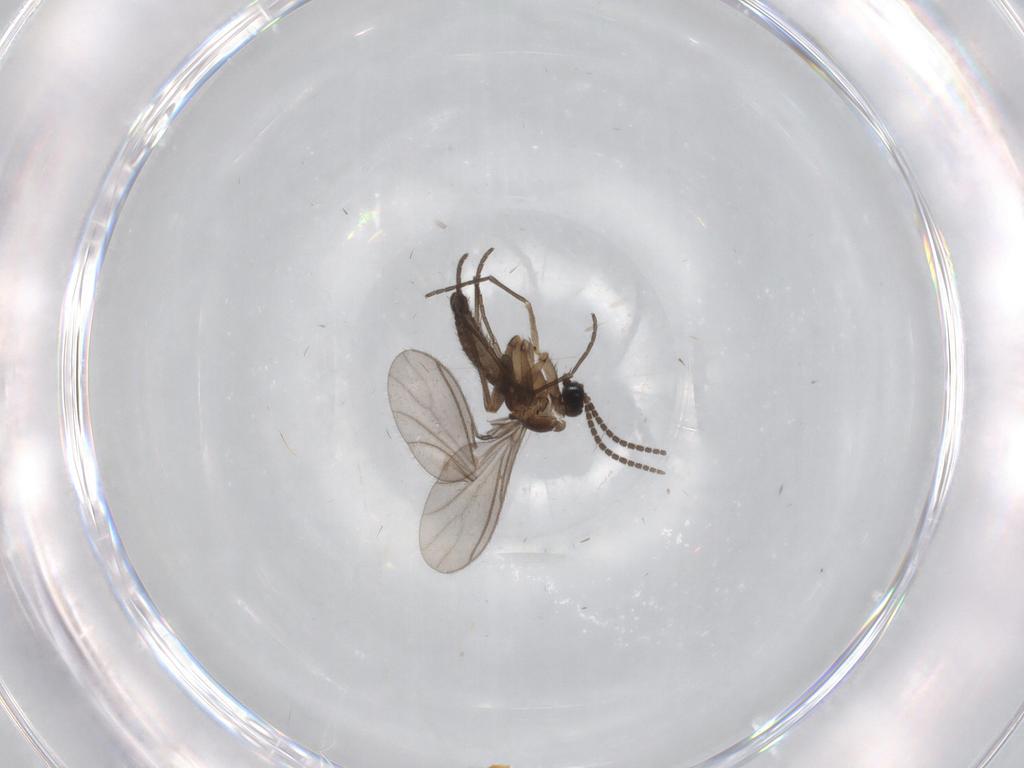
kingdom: Animalia
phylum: Arthropoda
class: Insecta
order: Diptera
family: Sciaridae
